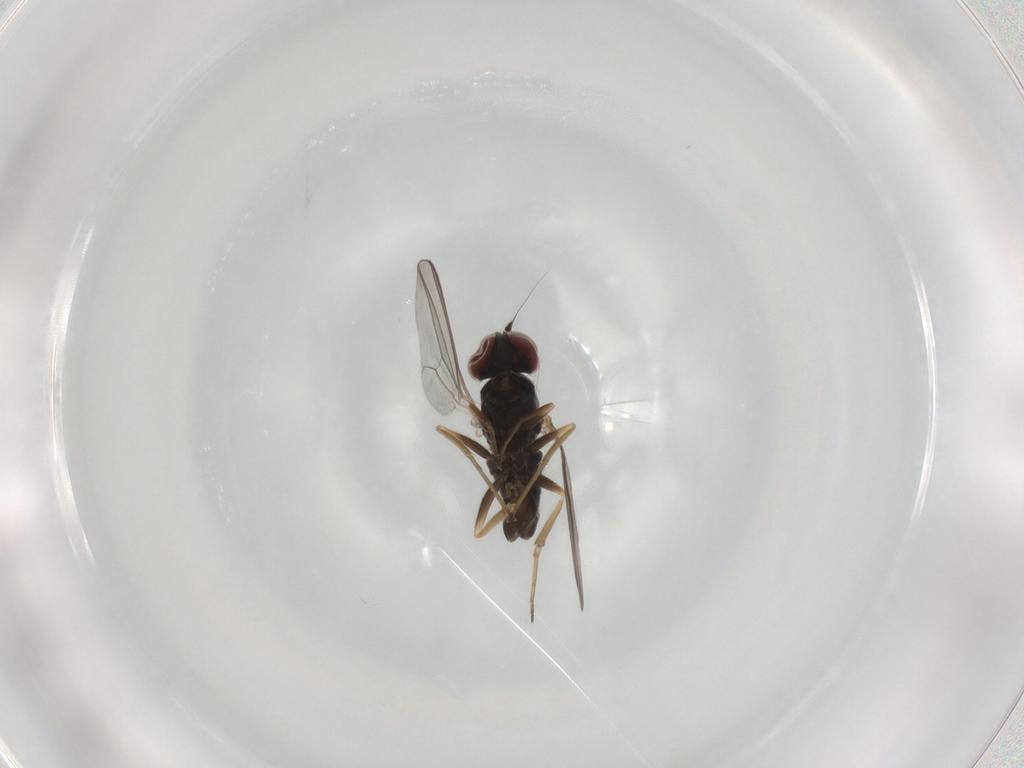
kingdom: Animalia
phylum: Arthropoda
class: Insecta
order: Diptera
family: Dolichopodidae
